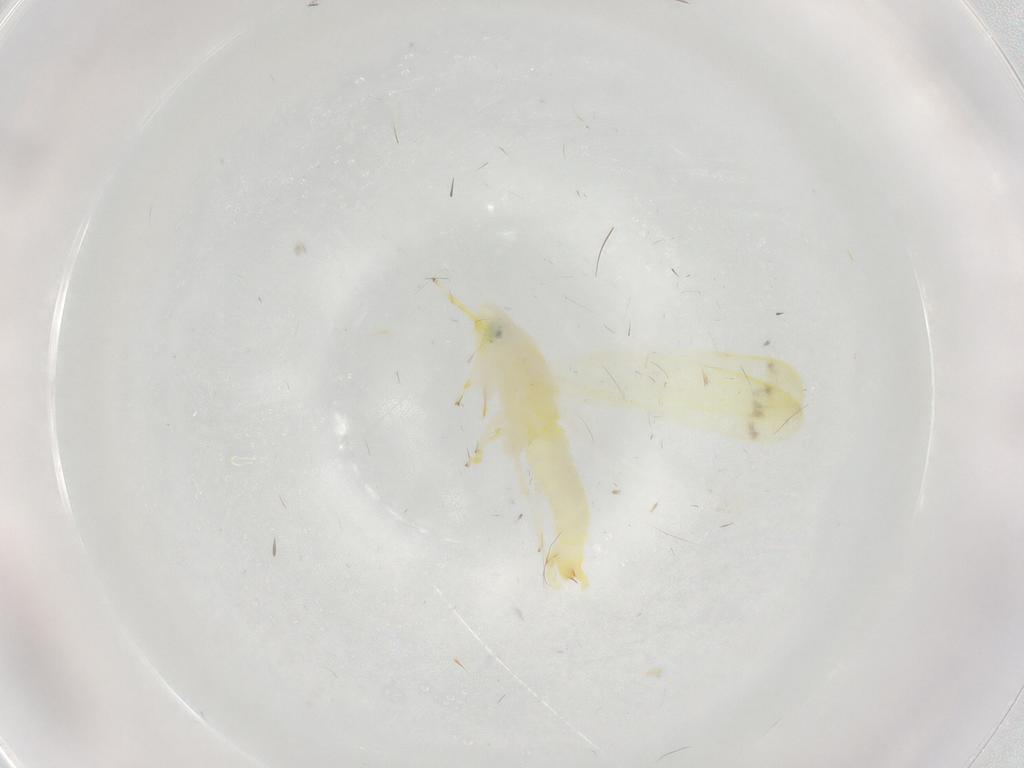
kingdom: Animalia
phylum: Arthropoda
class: Insecta
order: Hemiptera
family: Cicadellidae
